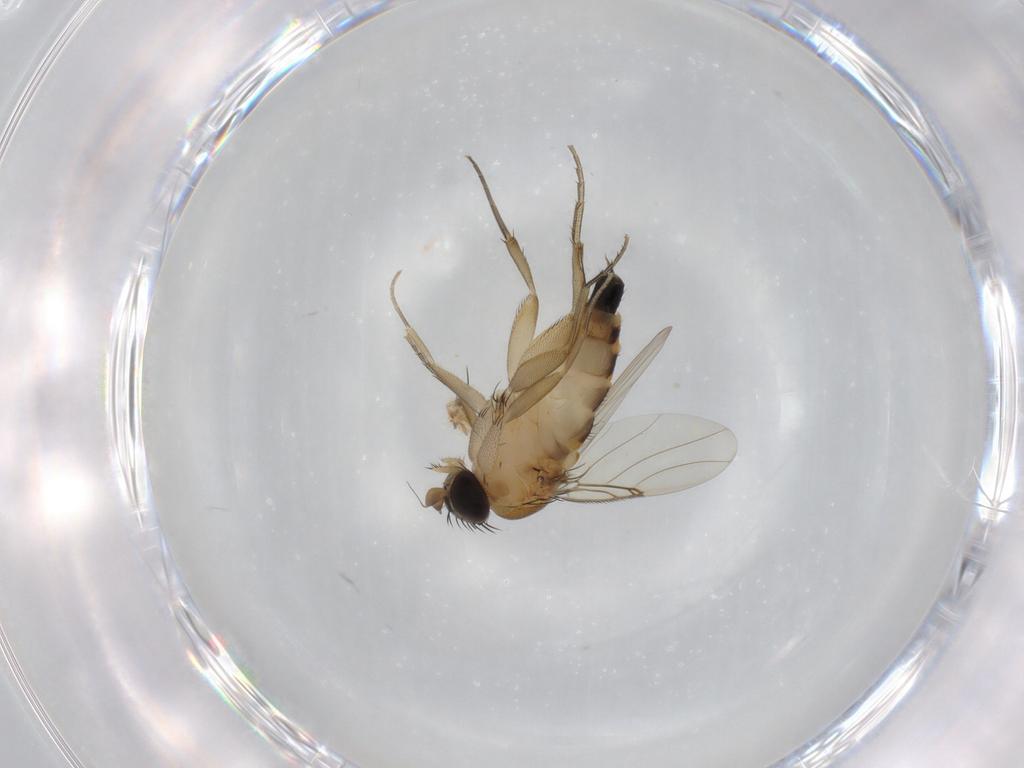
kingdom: Animalia
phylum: Arthropoda
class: Insecta
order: Diptera
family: Phoridae
